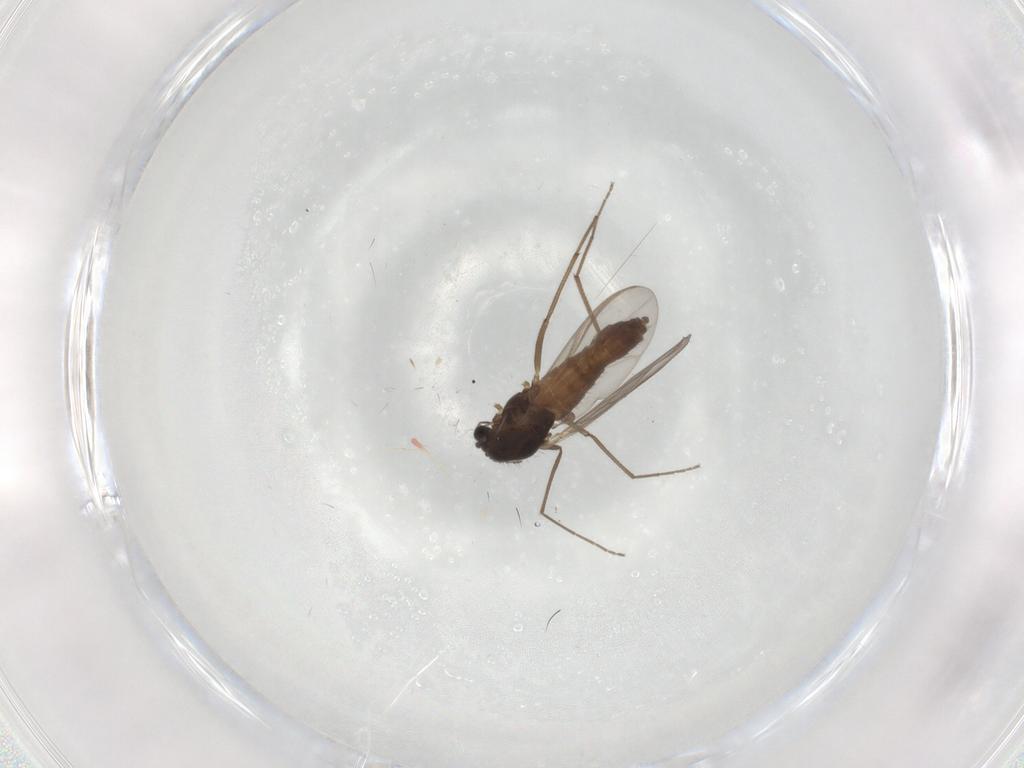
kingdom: Animalia
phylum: Arthropoda
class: Insecta
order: Diptera
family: Chironomidae
